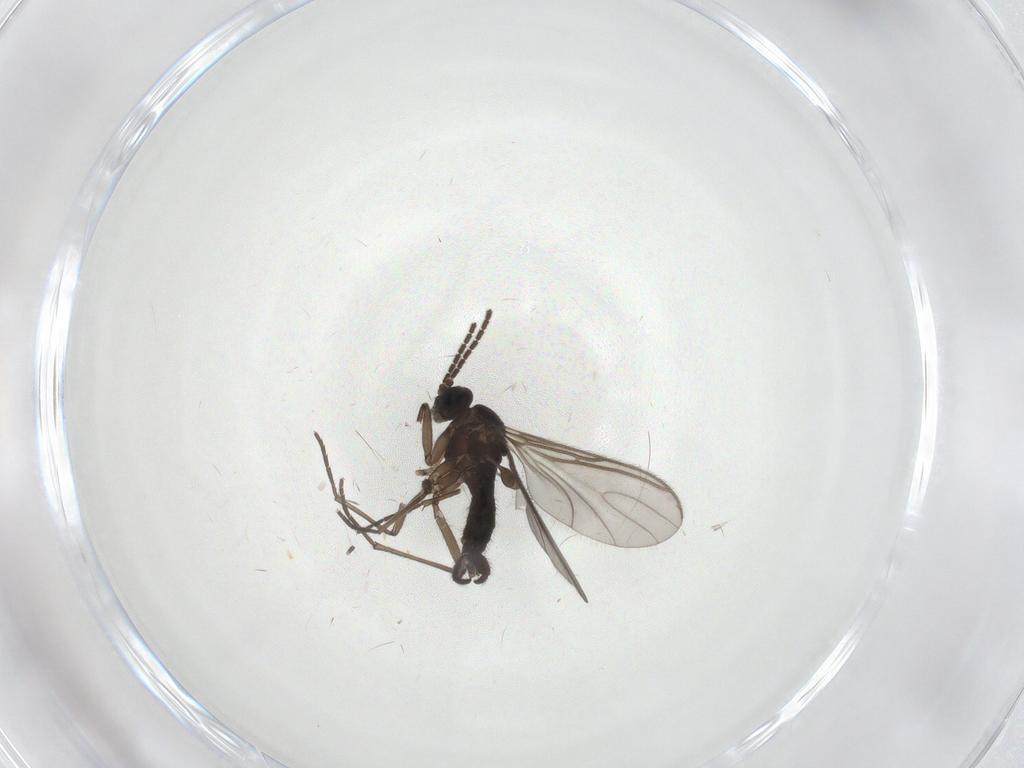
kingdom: Animalia
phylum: Arthropoda
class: Insecta
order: Diptera
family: Sciaridae
